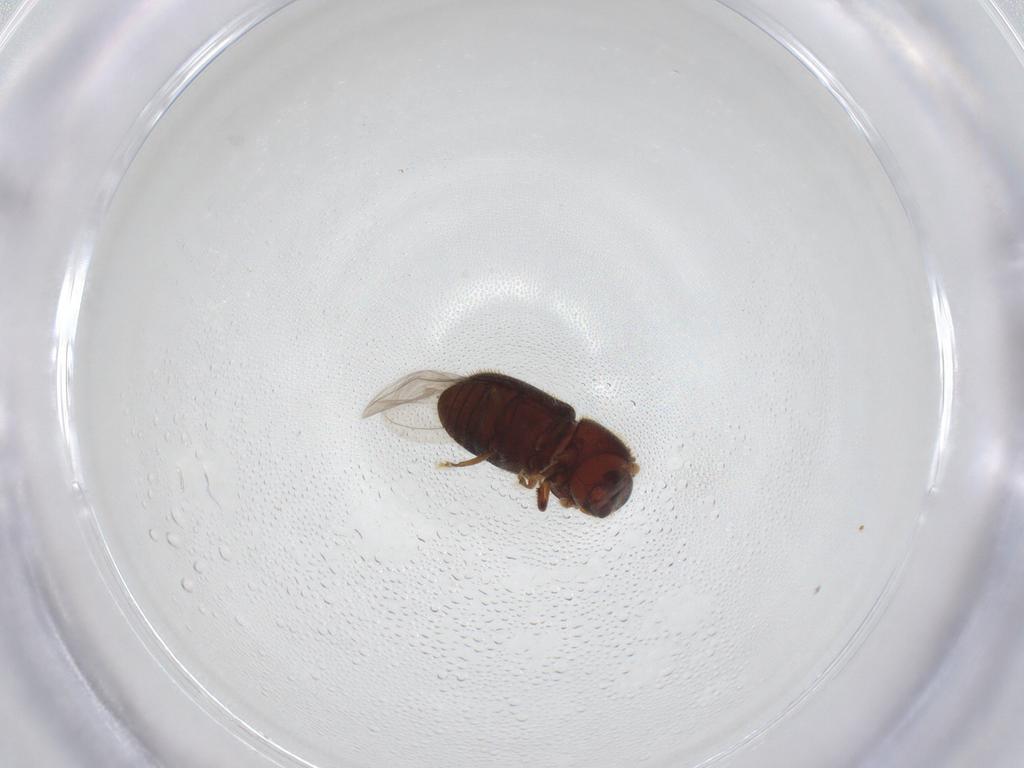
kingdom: Animalia
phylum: Arthropoda
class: Insecta
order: Coleoptera
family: Curculionidae
